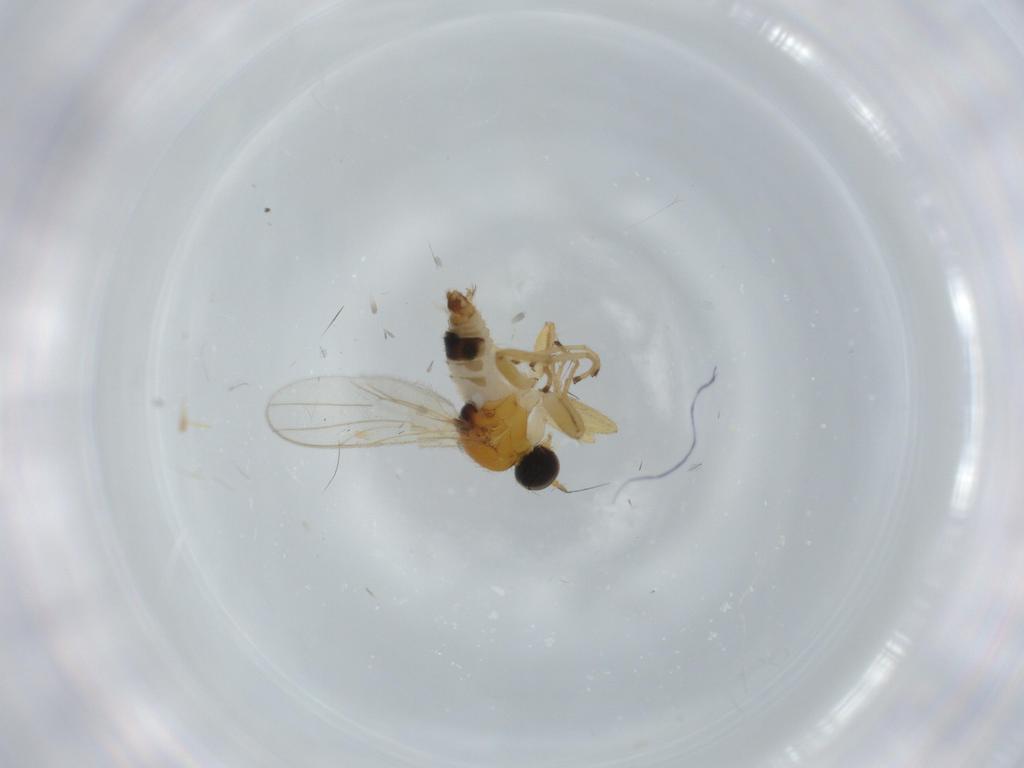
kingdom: Animalia
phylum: Arthropoda
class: Insecta
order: Diptera
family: Hybotidae
